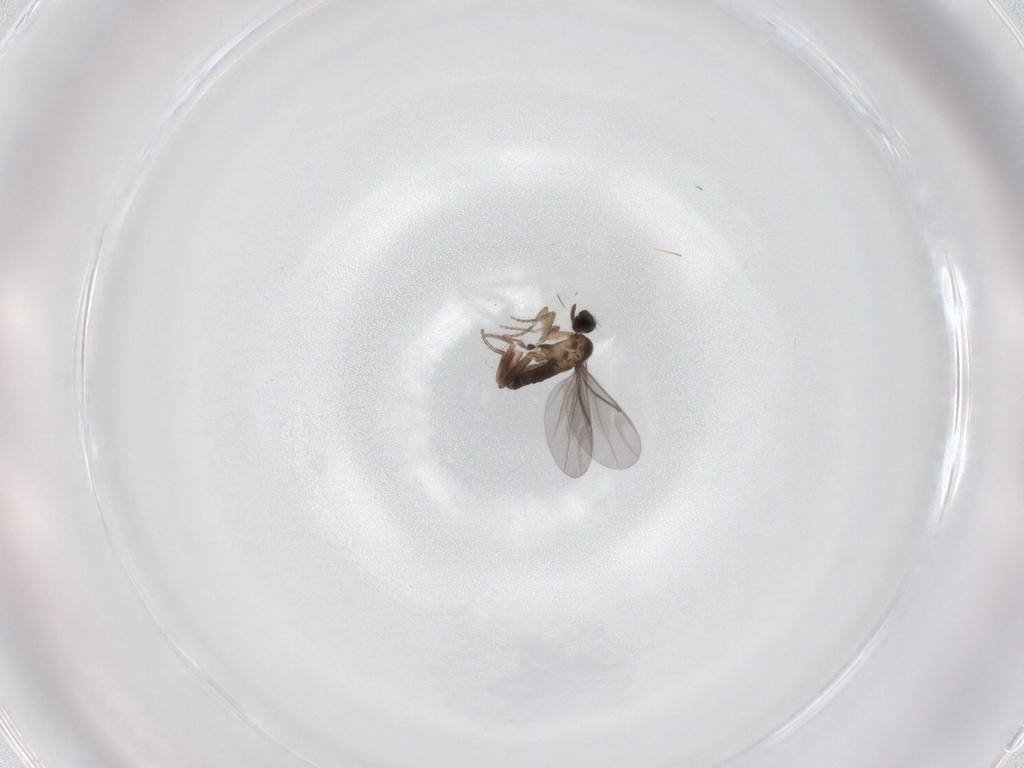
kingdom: Animalia
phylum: Arthropoda
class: Insecta
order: Diptera
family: Phoridae
